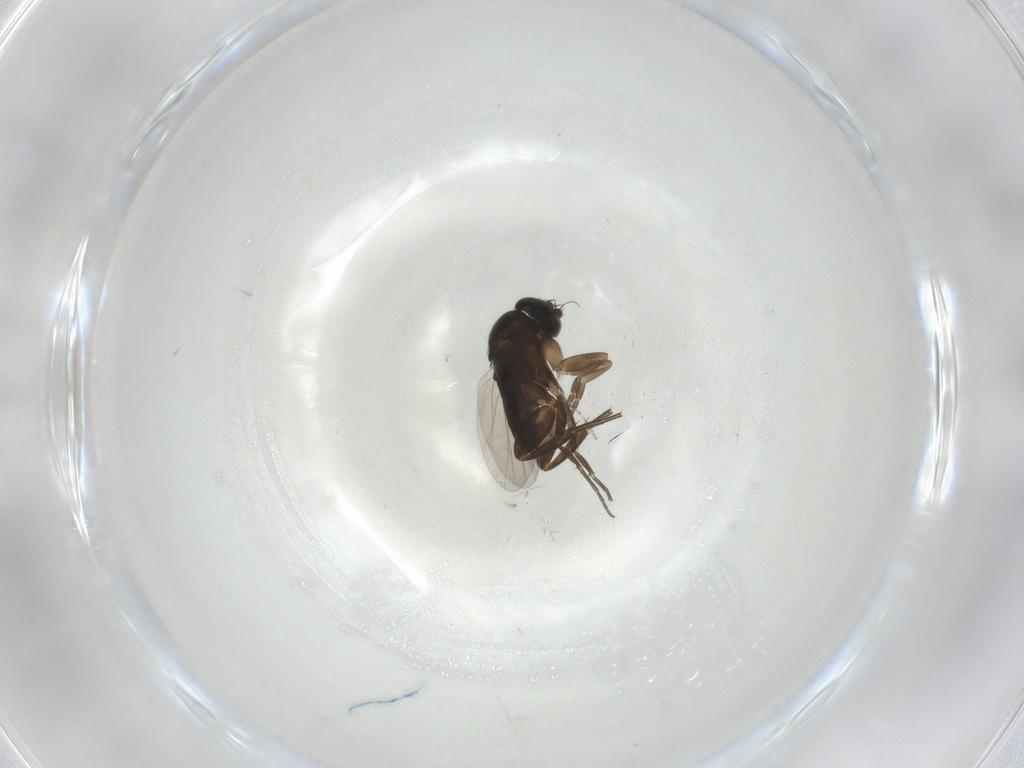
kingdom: Animalia
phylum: Arthropoda
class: Insecta
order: Diptera
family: Phoridae
